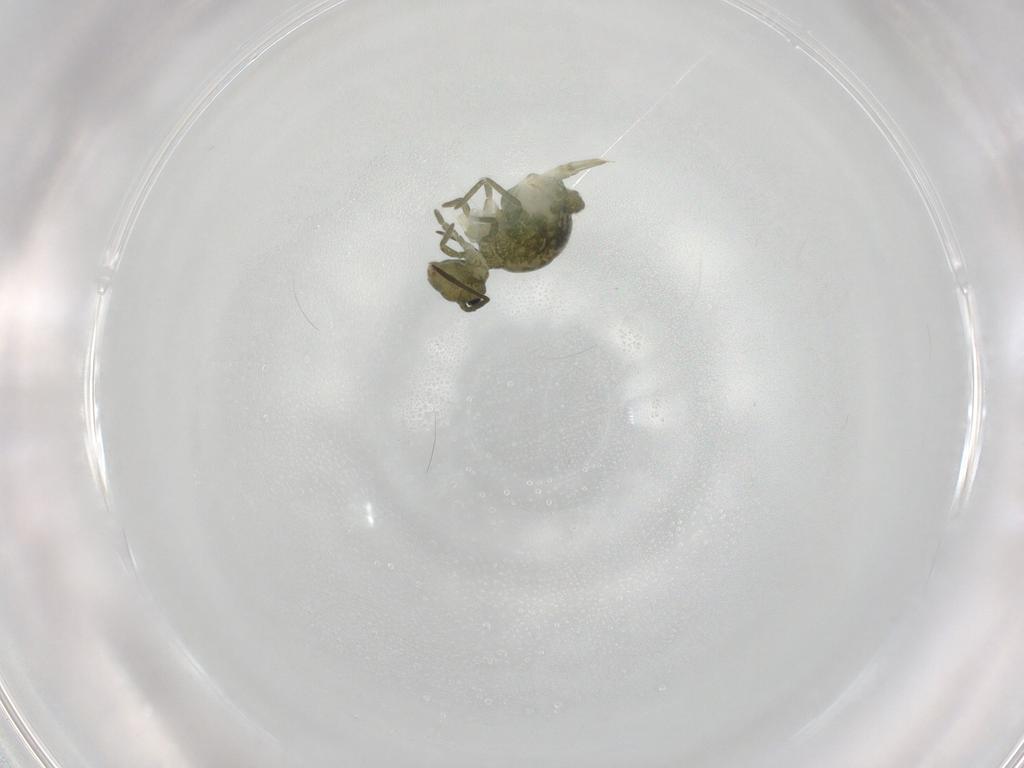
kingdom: Animalia
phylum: Arthropoda
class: Collembola
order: Symphypleona
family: Sminthuridae
